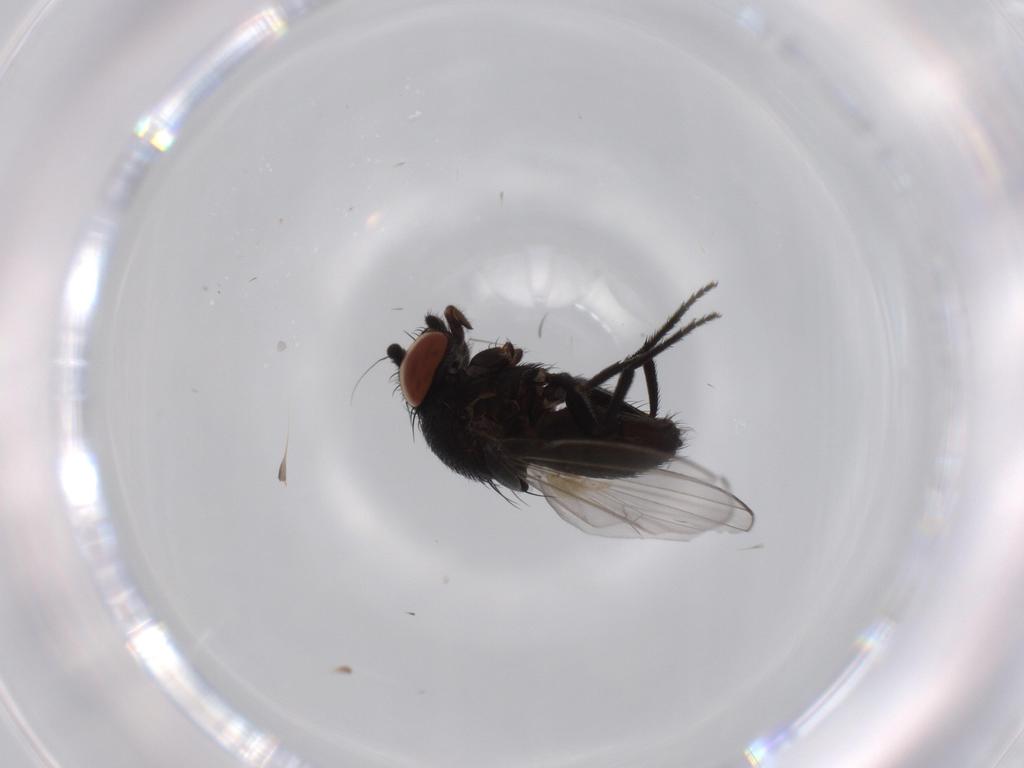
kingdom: Animalia
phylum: Arthropoda
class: Insecta
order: Diptera
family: Milichiidae
